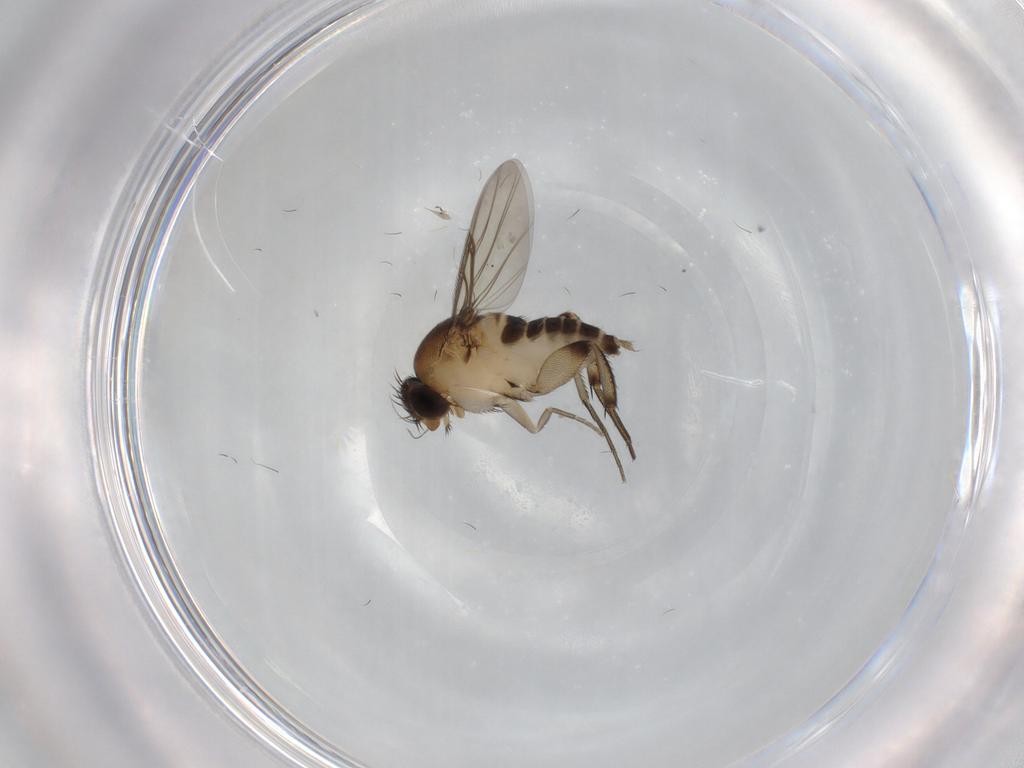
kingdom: Animalia
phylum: Arthropoda
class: Insecta
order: Diptera
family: Phoridae
